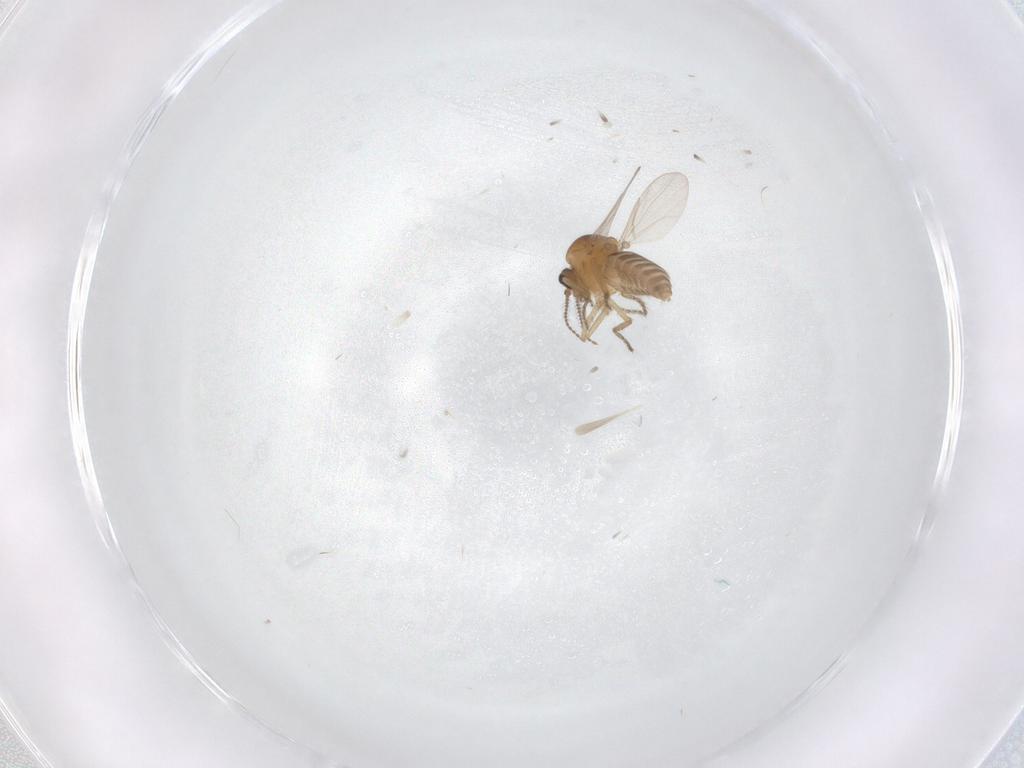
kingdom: Animalia
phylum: Arthropoda
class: Insecta
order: Diptera
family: Ceratopogonidae
